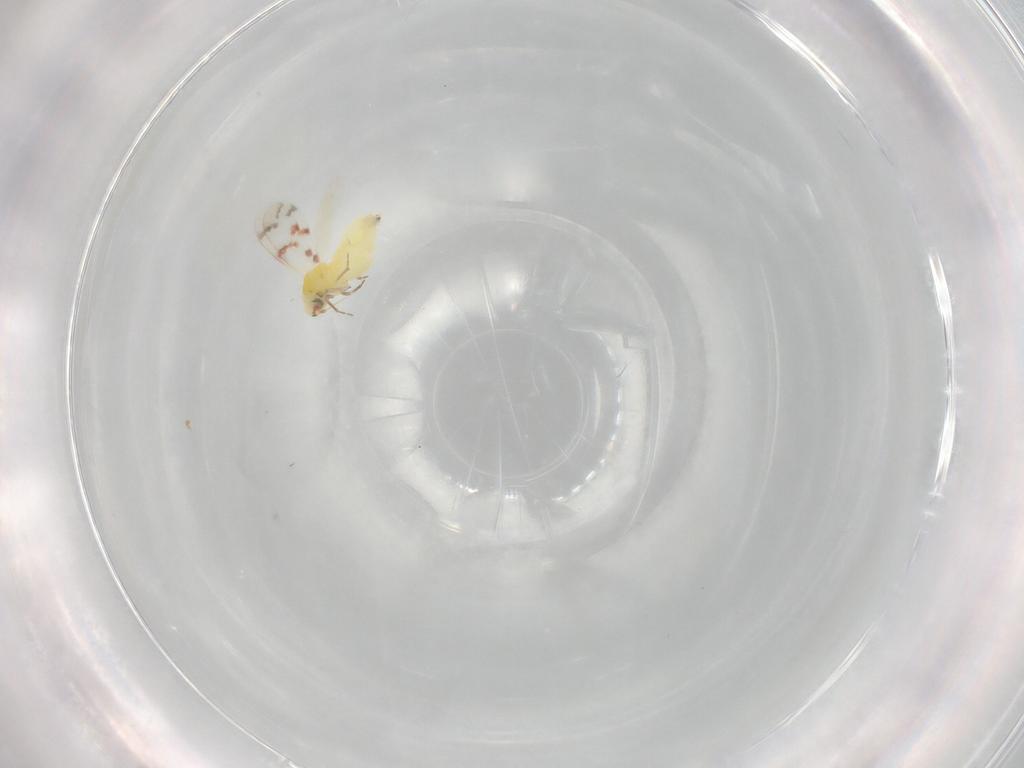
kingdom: Animalia
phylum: Arthropoda
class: Insecta
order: Hemiptera
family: Aleyrodidae
